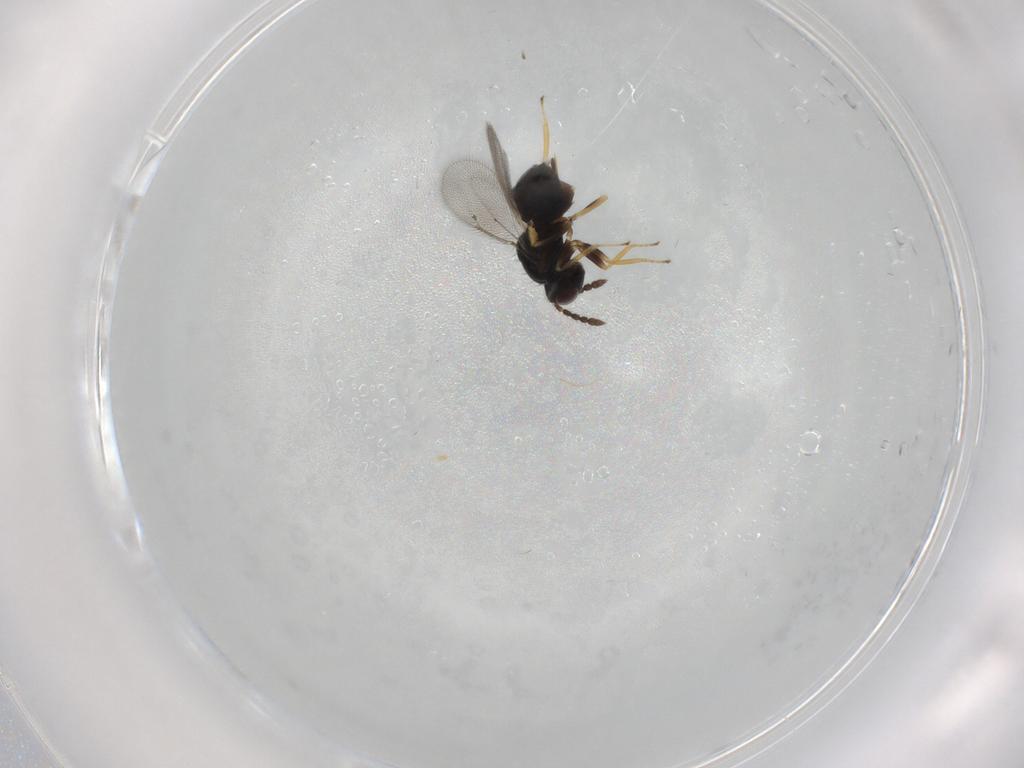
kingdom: Animalia
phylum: Arthropoda
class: Insecta
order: Hymenoptera
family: Eulophidae
